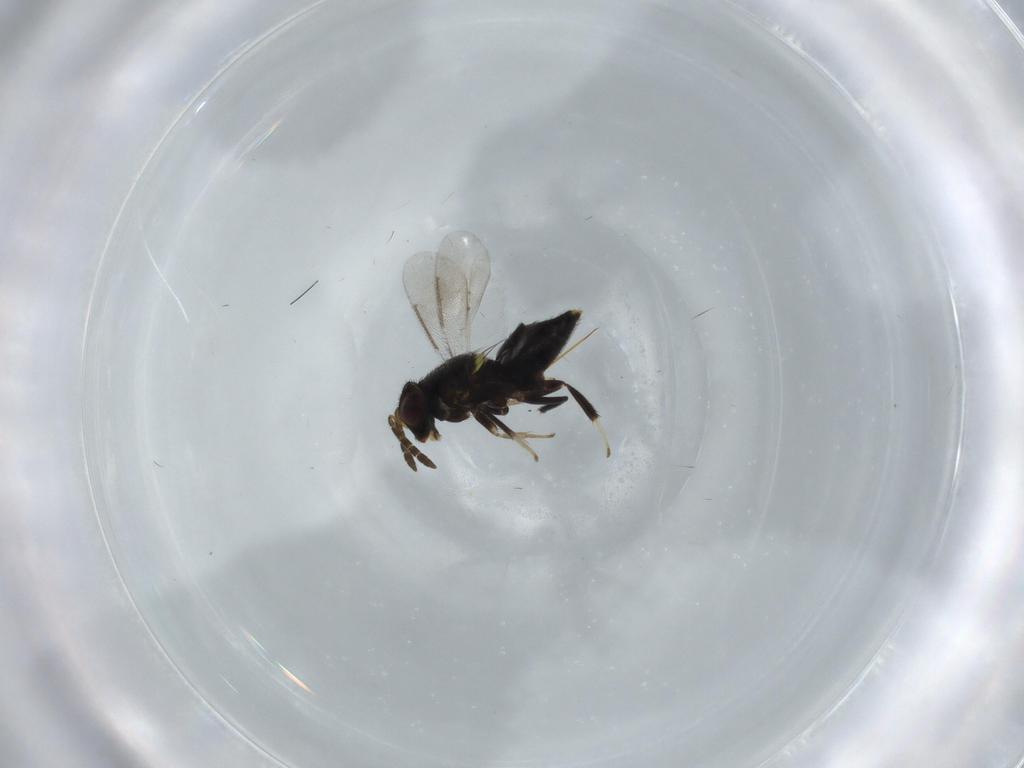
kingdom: Animalia
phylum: Arthropoda
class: Insecta
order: Hymenoptera
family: Aphelinidae
